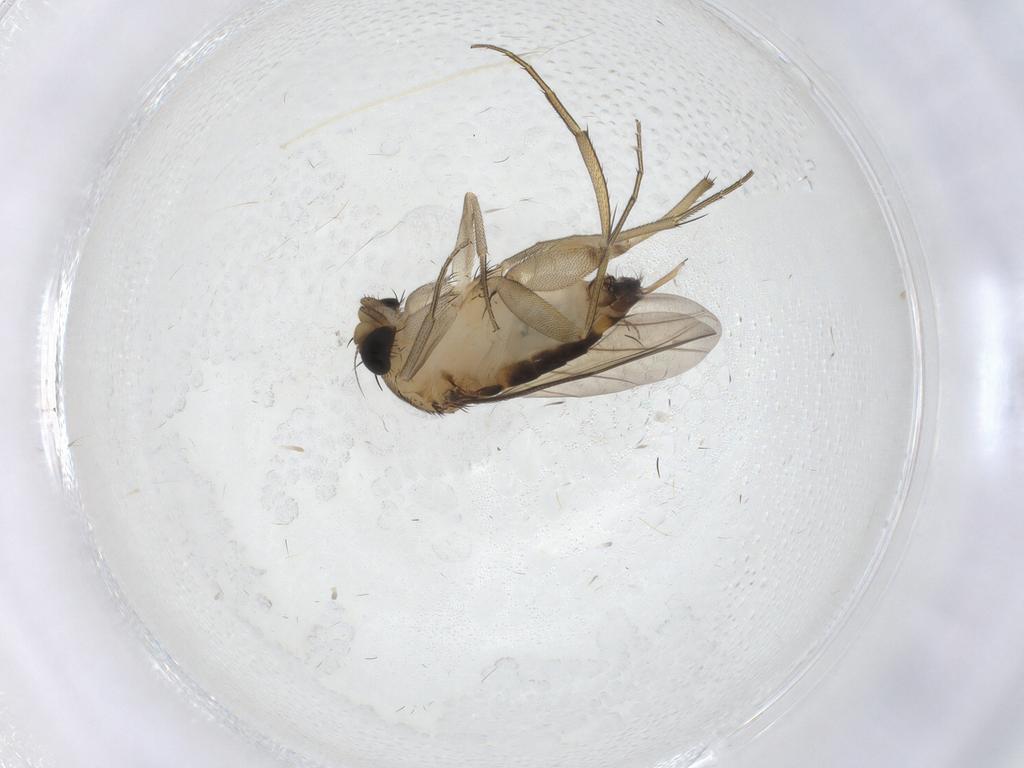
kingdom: Animalia
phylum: Arthropoda
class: Insecta
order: Diptera
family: Phoridae
